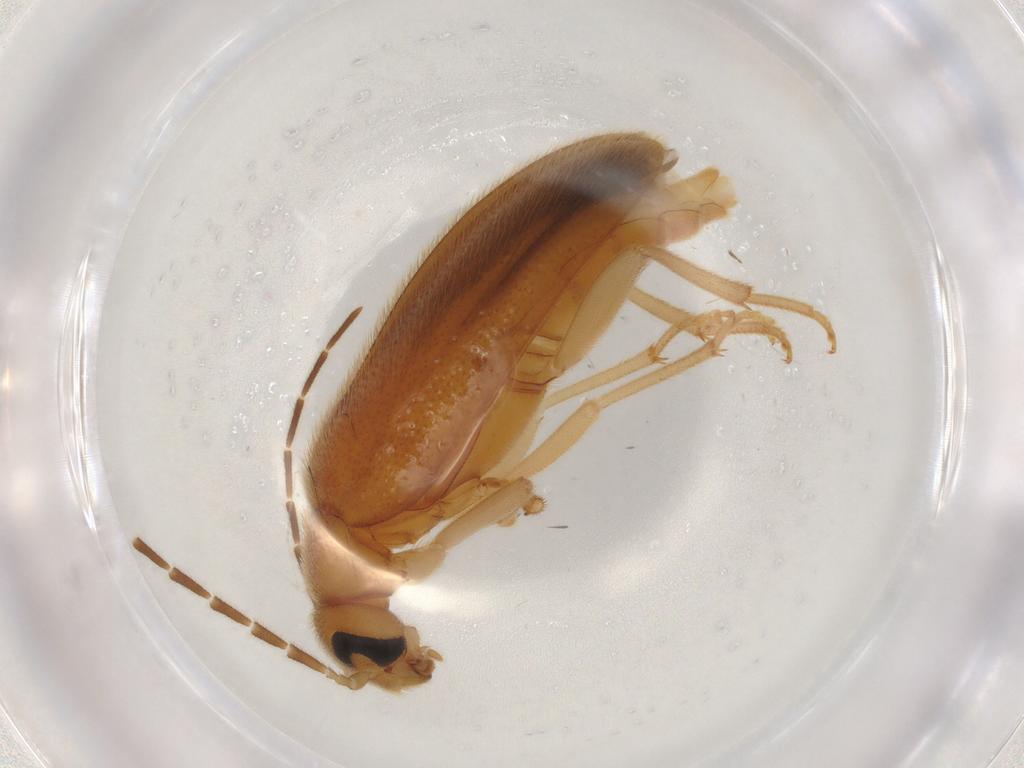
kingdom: Animalia
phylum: Arthropoda
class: Insecta
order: Coleoptera
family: Scraptiidae
